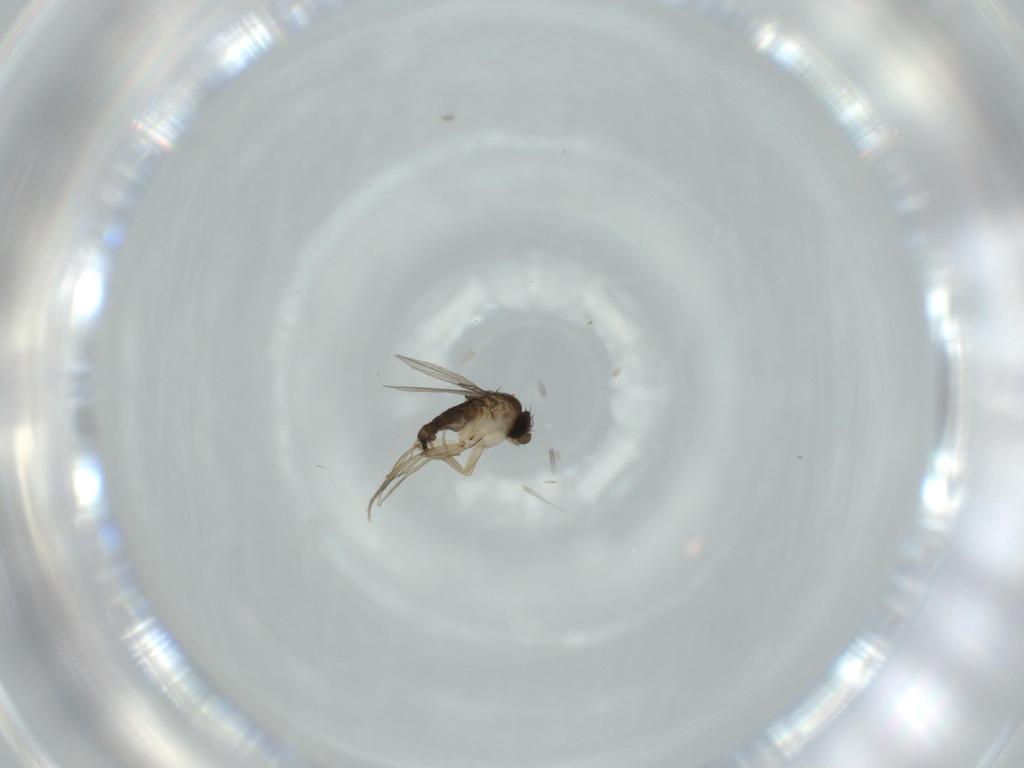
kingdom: Animalia
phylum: Arthropoda
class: Insecta
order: Diptera
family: Phoridae
